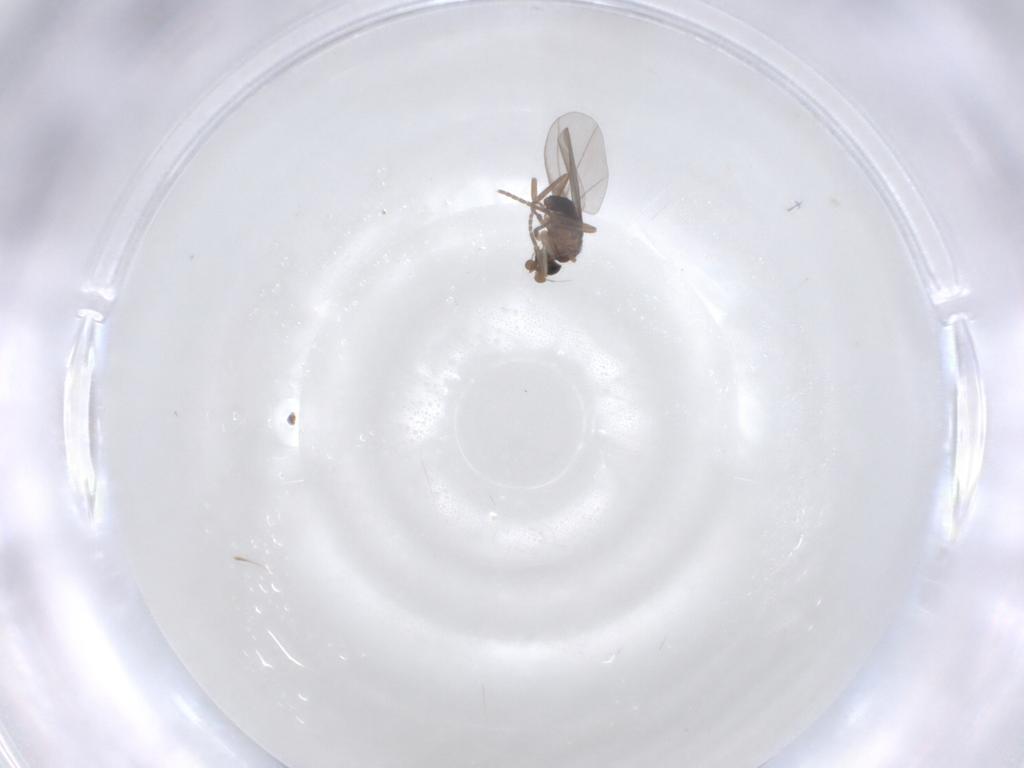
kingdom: Animalia
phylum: Arthropoda
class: Insecta
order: Diptera
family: Phoridae
